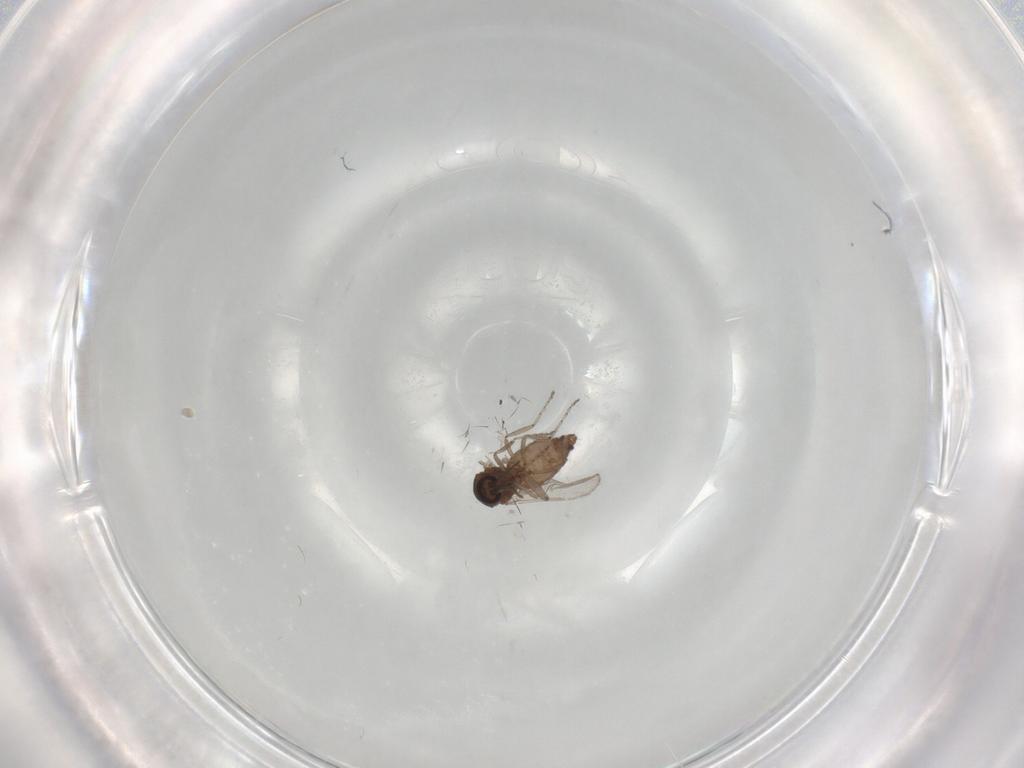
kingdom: Animalia
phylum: Arthropoda
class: Insecta
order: Diptera
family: Ceratopogonidae
